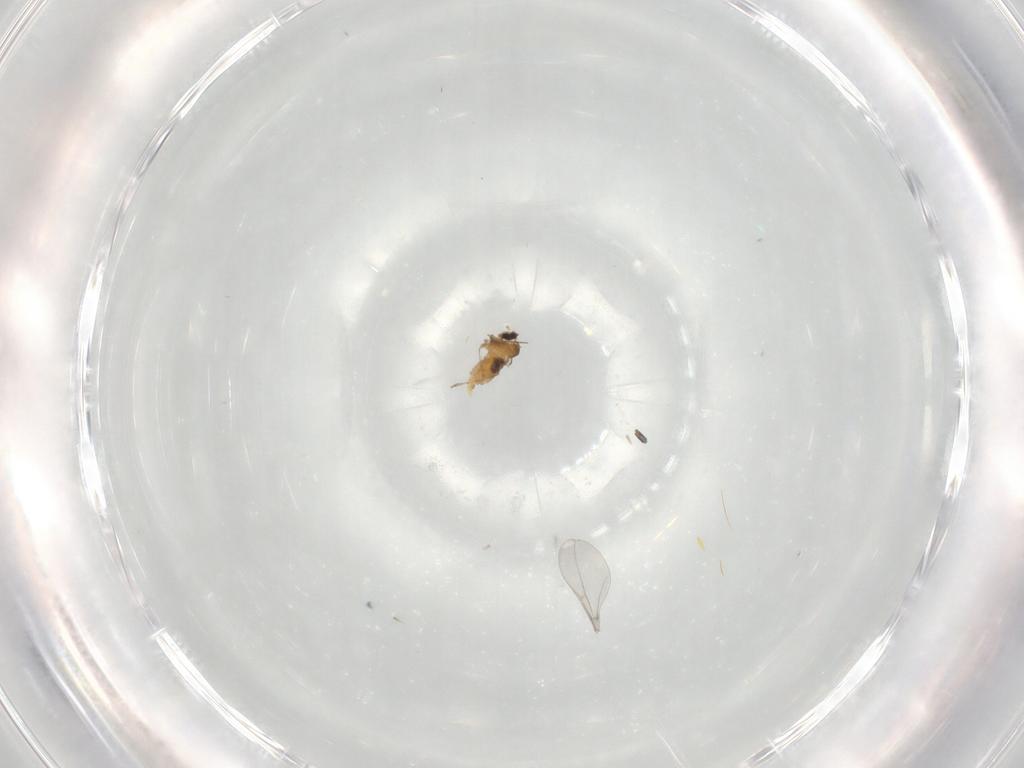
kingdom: Animalia
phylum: Arthropoda
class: Insecta
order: Diptera
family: Cecidomyiidae
